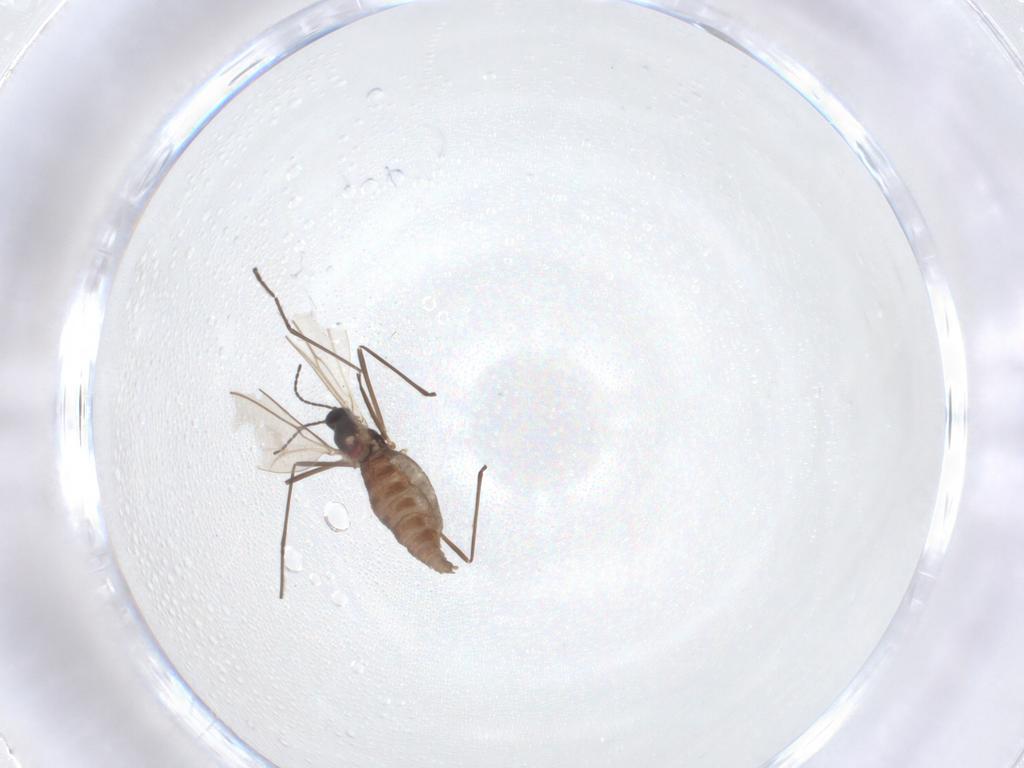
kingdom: Animalia
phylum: Arthropoda
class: Insecta
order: Diptera
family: Cecidomyiidae
